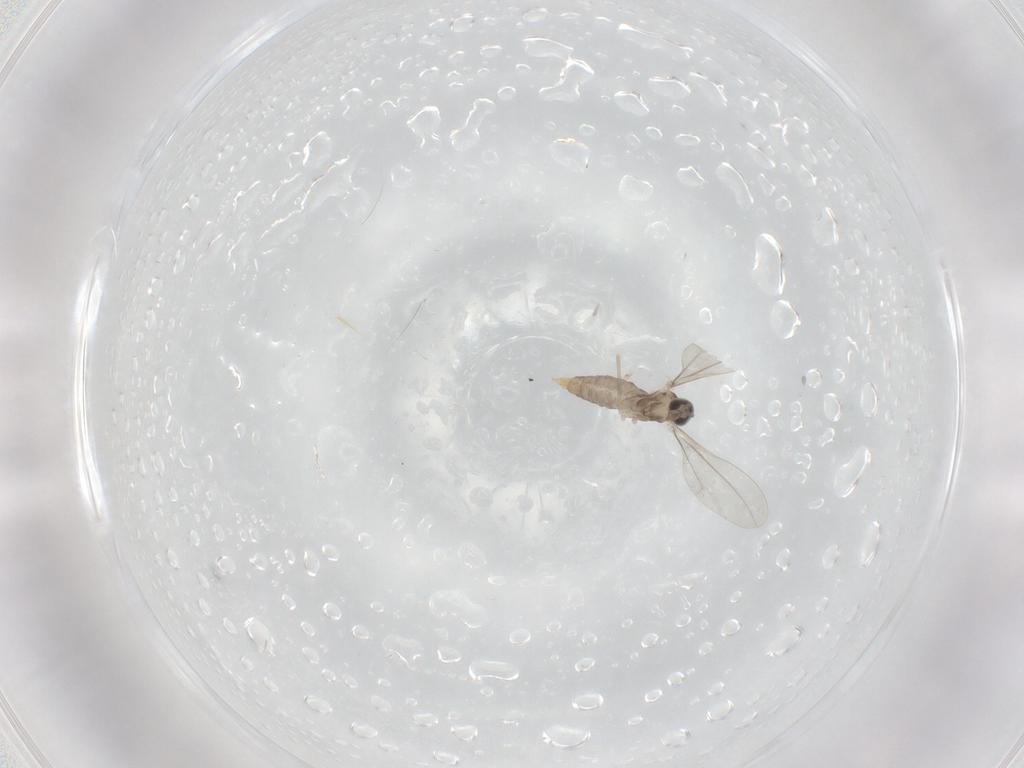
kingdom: Animalia
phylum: Arthropoda
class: Insecta
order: Diptera
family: Cecidomyiidae
